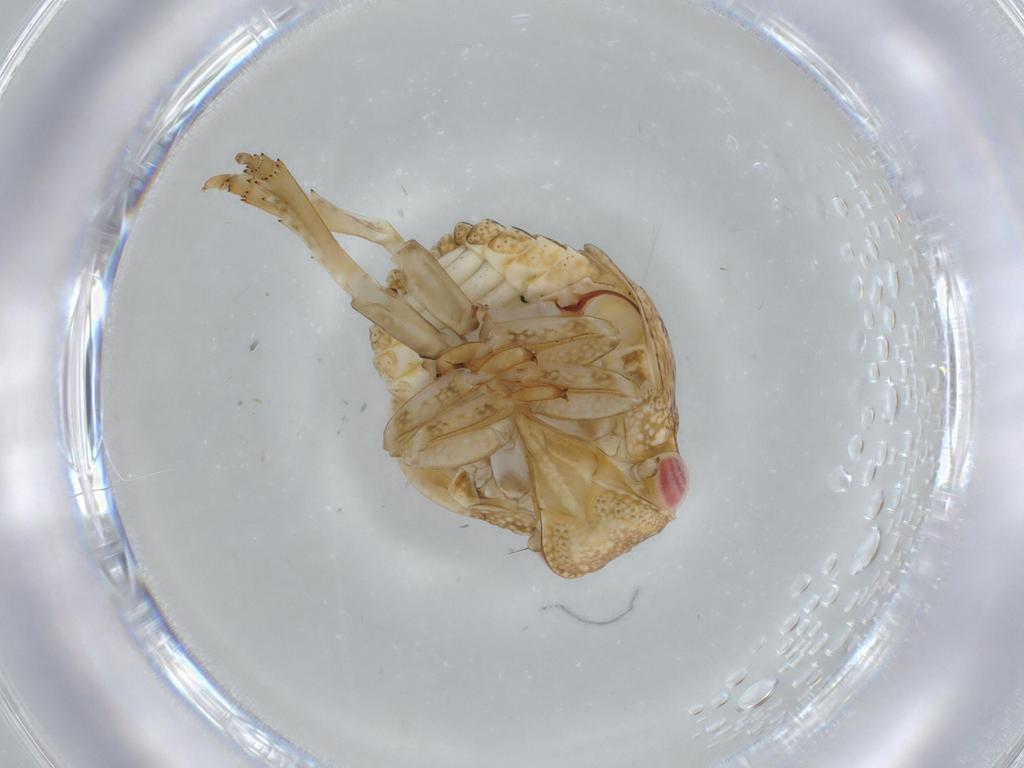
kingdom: Animalia
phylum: Arthropoda
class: Insecta
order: Hemiptera
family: Acanaloniidae
